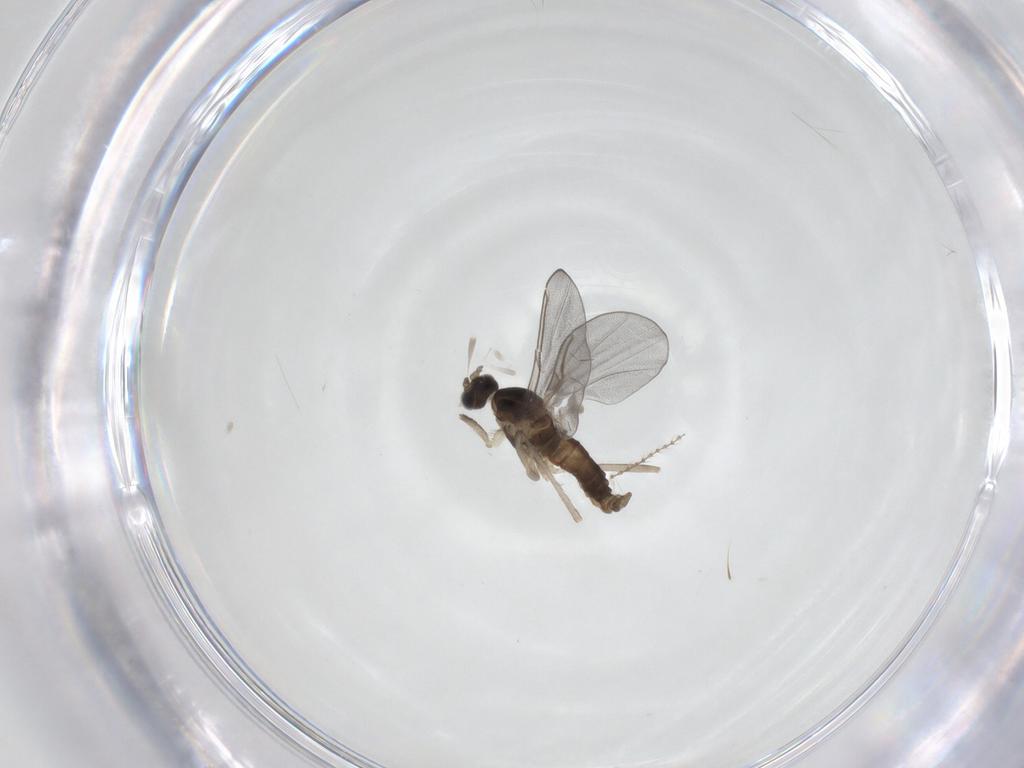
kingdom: Animalia
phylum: Arthropoda
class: Insecta
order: Diptera
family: Cecidomyiidae
